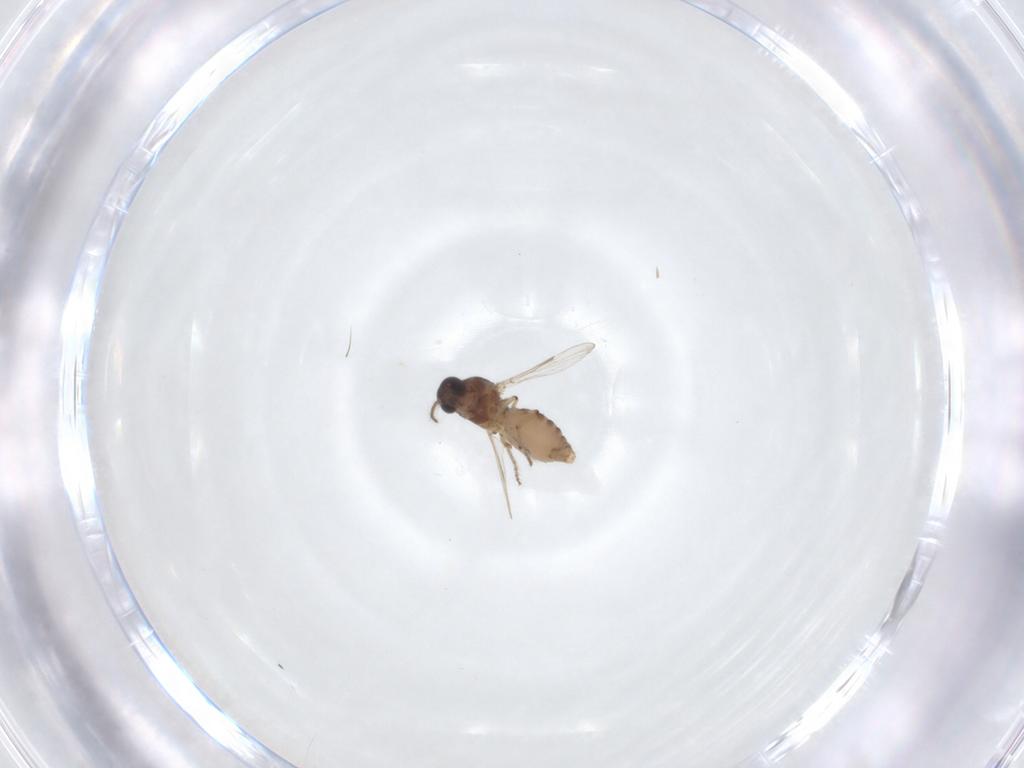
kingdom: Animalia
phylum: Arthropoda
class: Insecta
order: Diptera
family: Ceratopogonidae
